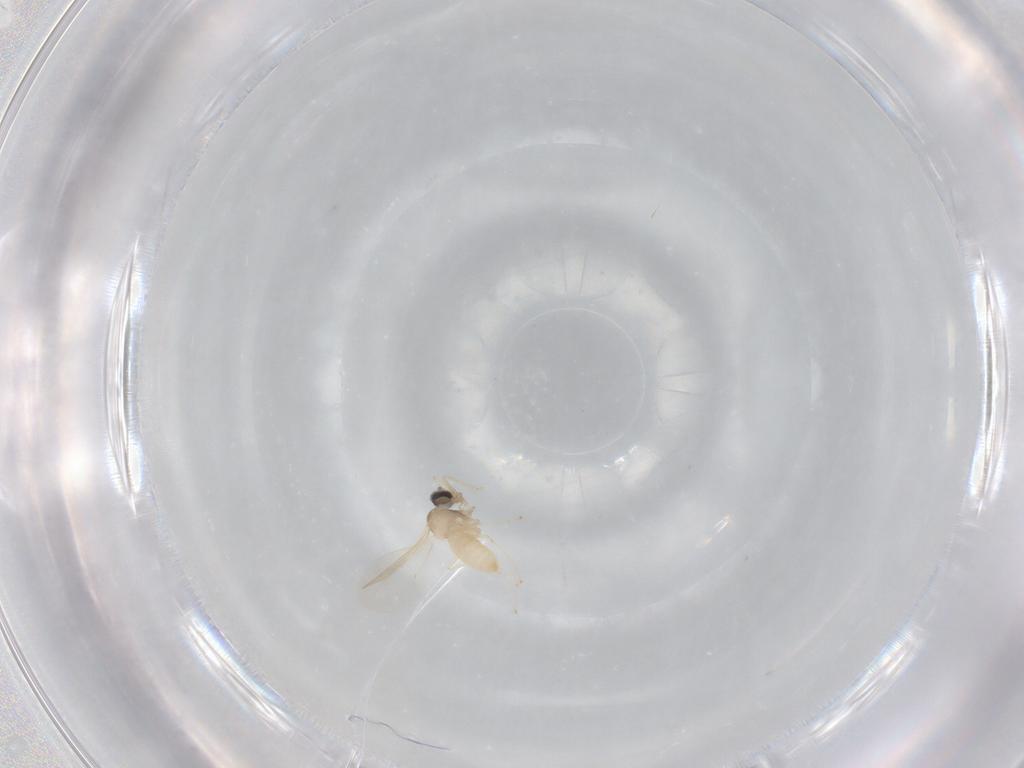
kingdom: Animalia
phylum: Arthropoda
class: Insecta
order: Diptera
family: Cecidomyiidae
